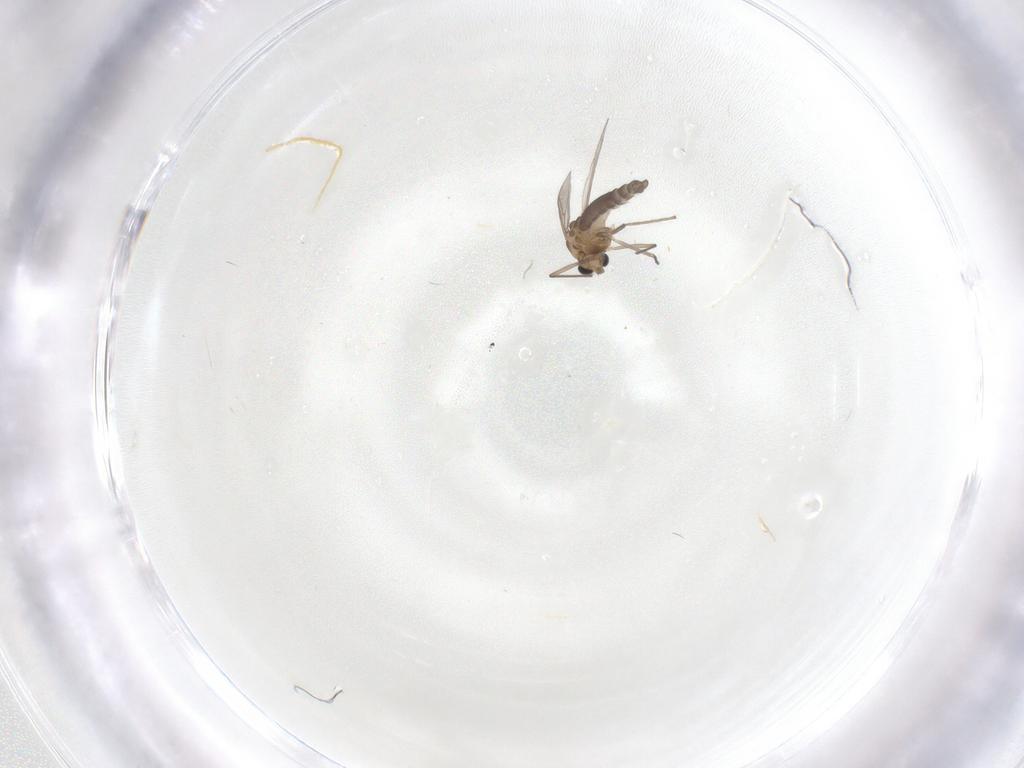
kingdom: Animalia
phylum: Arthropoda
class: Insecta
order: Diptera
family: Chironomidae
